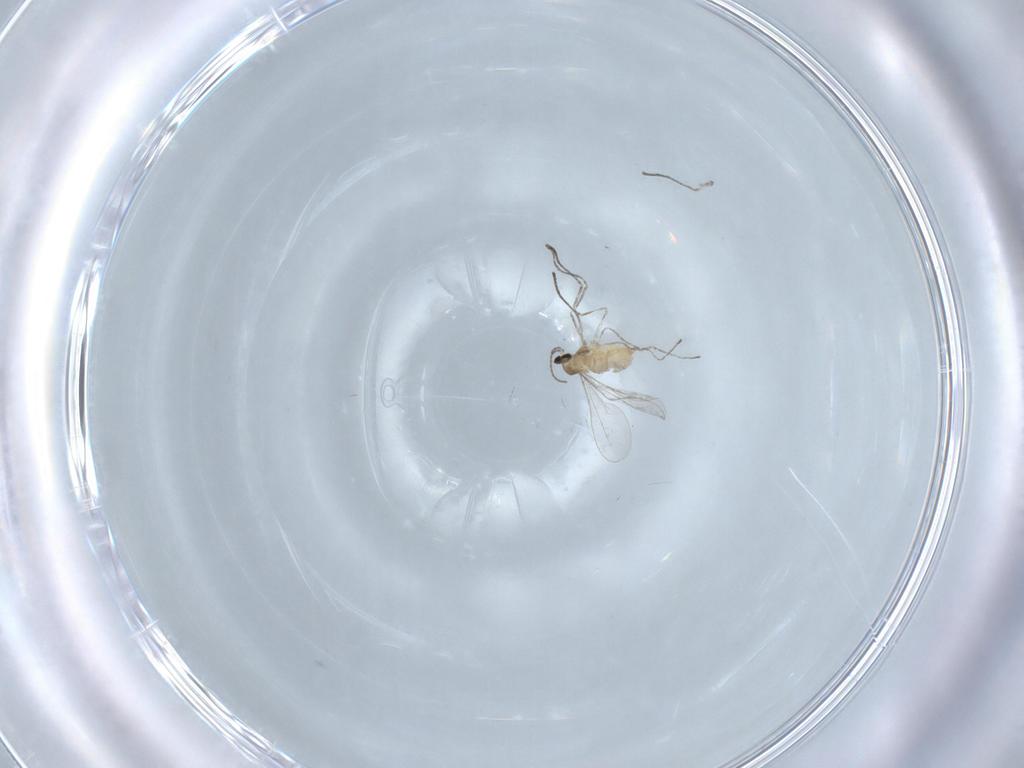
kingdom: Animalia
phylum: Arthropoda
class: Insecta
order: Diptera
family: Cecidomyiidae
